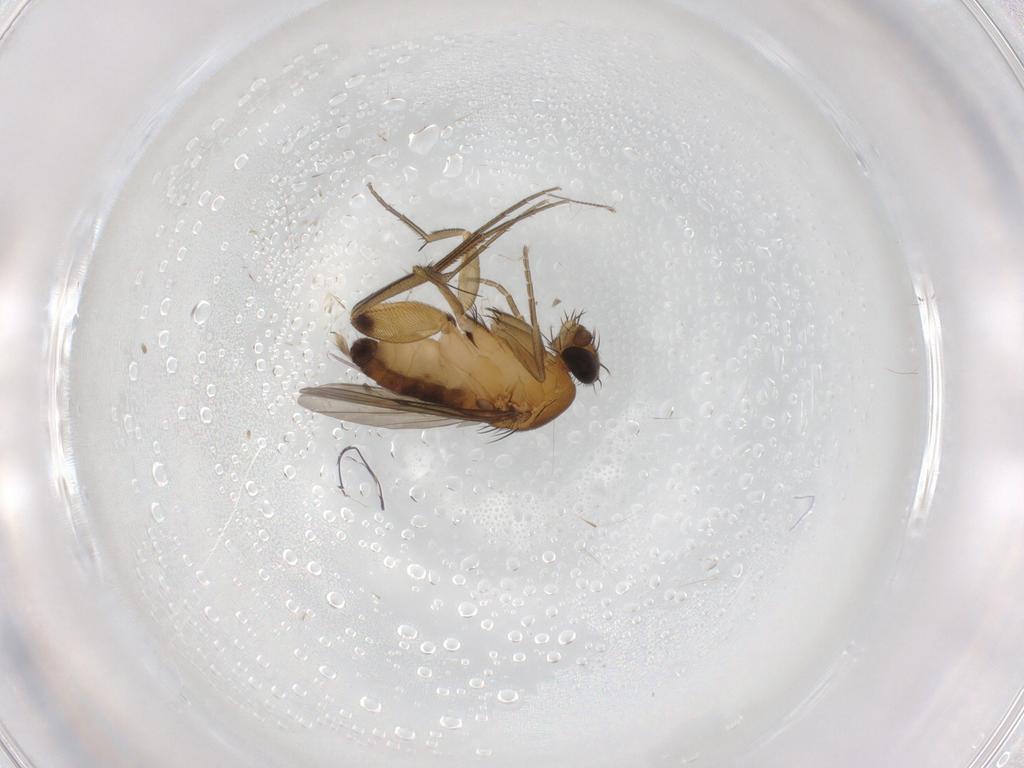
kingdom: Animalia
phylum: Arthropoda
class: Insecta
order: Diptera
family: Phoridae
